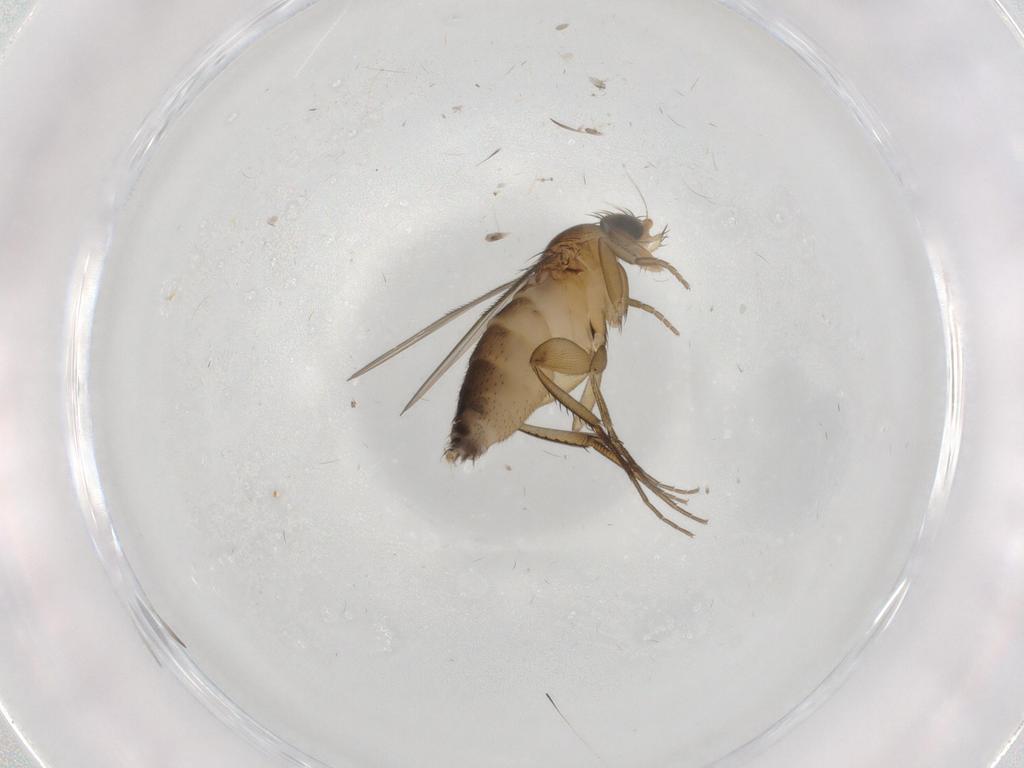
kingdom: Animalia
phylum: Arthropoda
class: Insecta
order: Diptera
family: Phoridae
